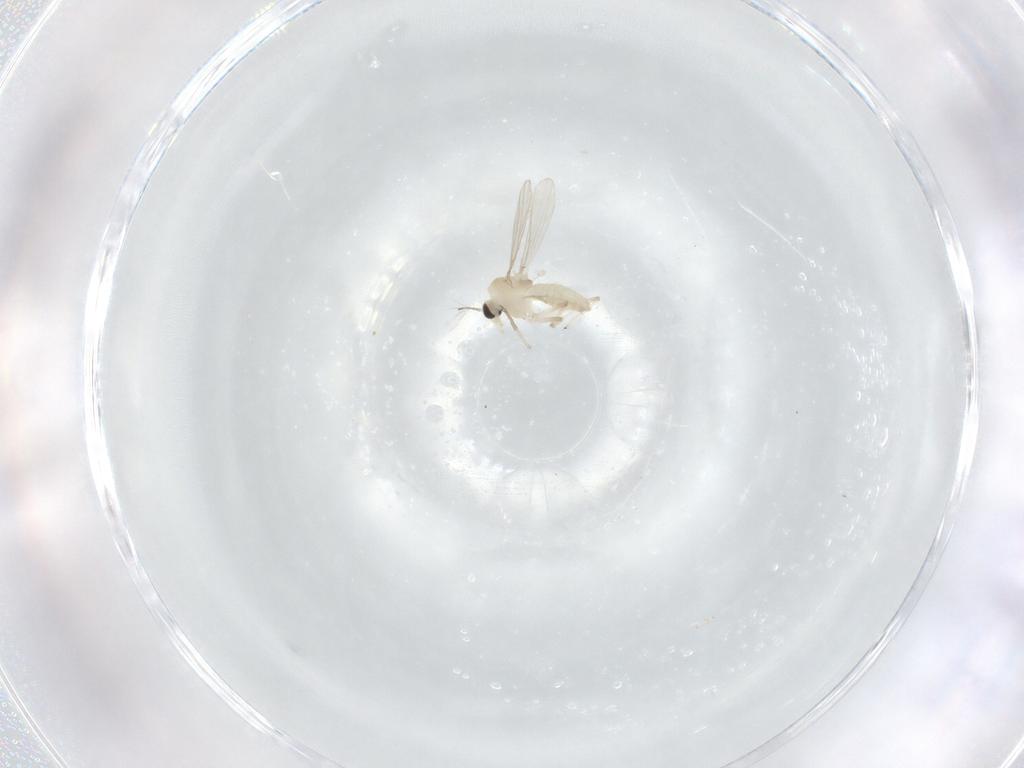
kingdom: Animalia
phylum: Arthropoda
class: Insecta
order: Diptera
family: Chironomidae
